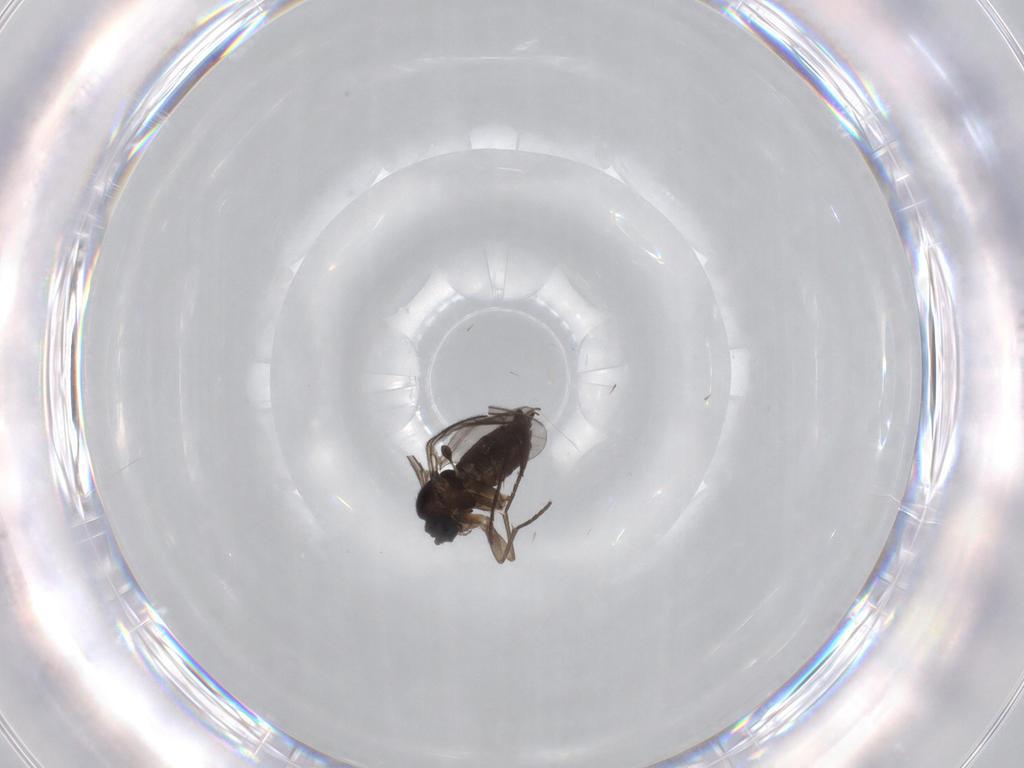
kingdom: Animalia
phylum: Arthropoda
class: Insecta
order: Diptera
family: Sciaridae
